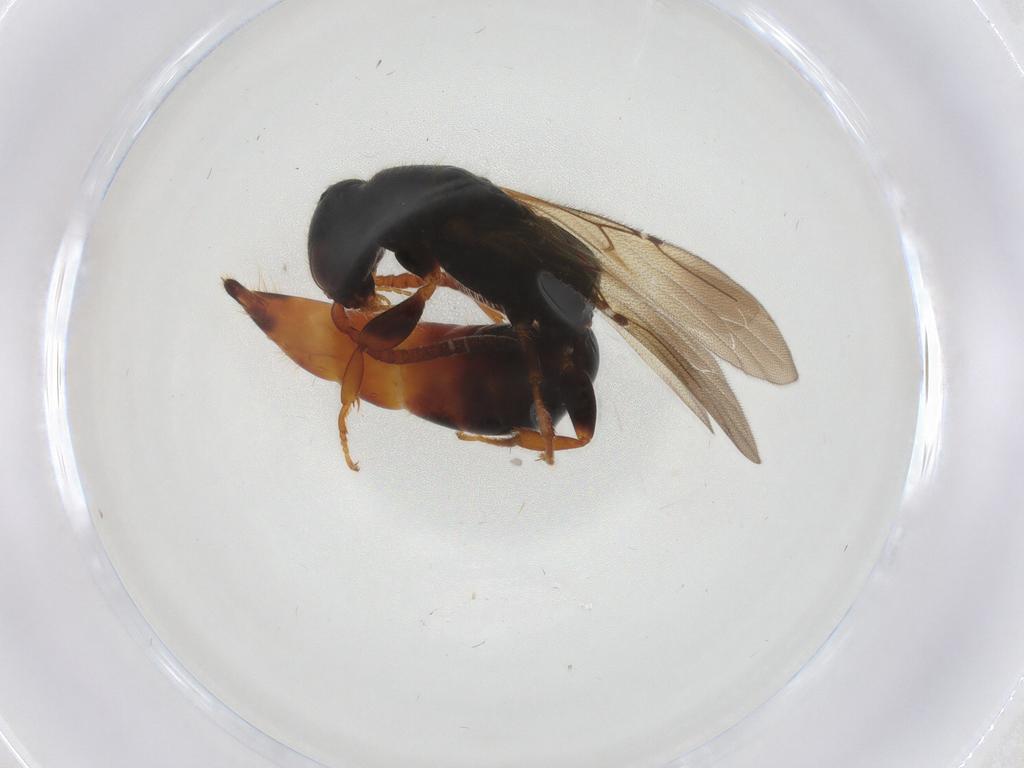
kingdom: Animalia
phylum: Arthropoda
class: Insecta
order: Hymenoptera
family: Bethylidae
